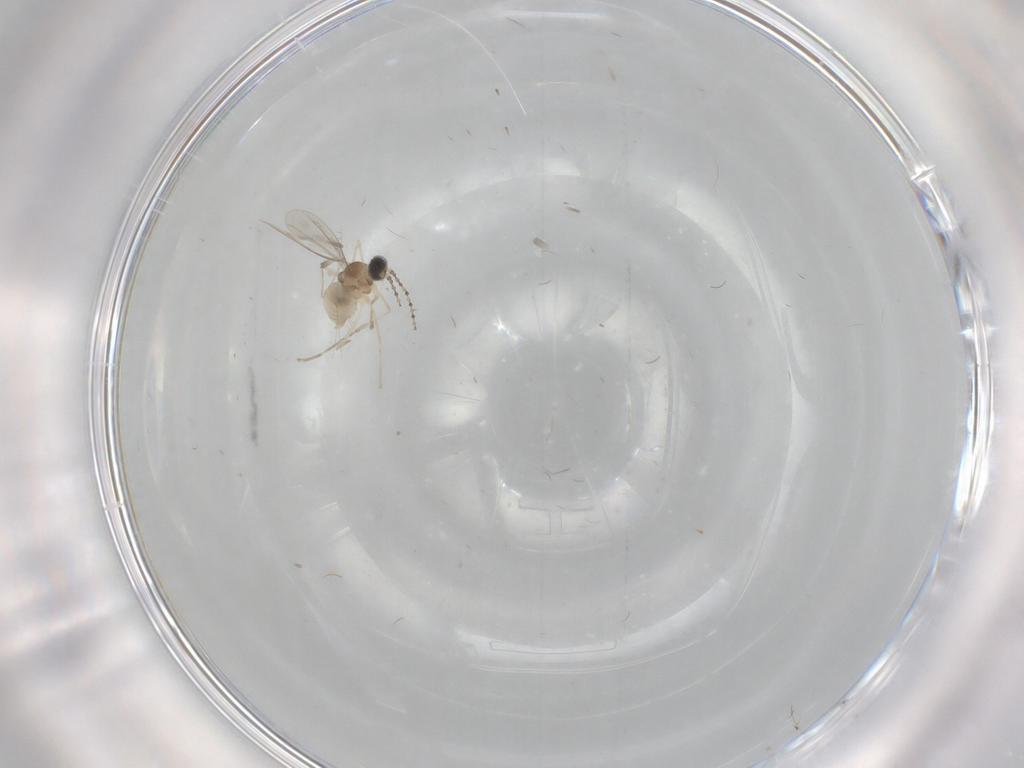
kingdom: Animalia
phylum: Arthropoda
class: Insecta
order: Diptera
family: Cecidomyiidae
